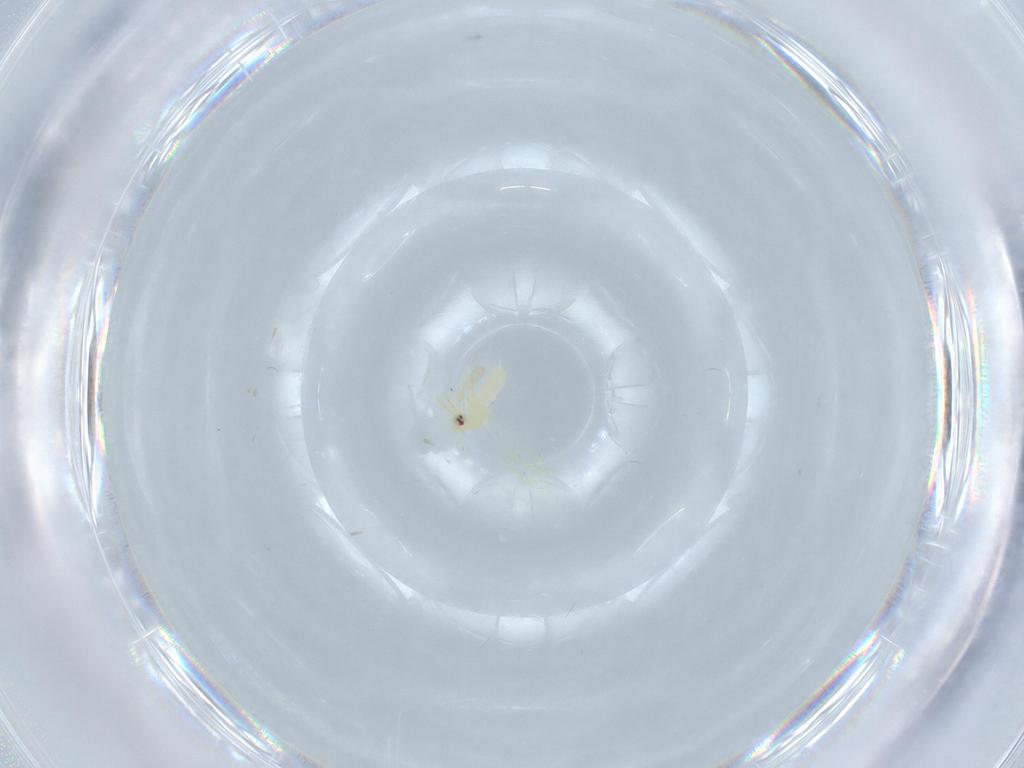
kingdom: Animalia
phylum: Arthropoda
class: Insecta
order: Hemiptera
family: Aleyrodidae
